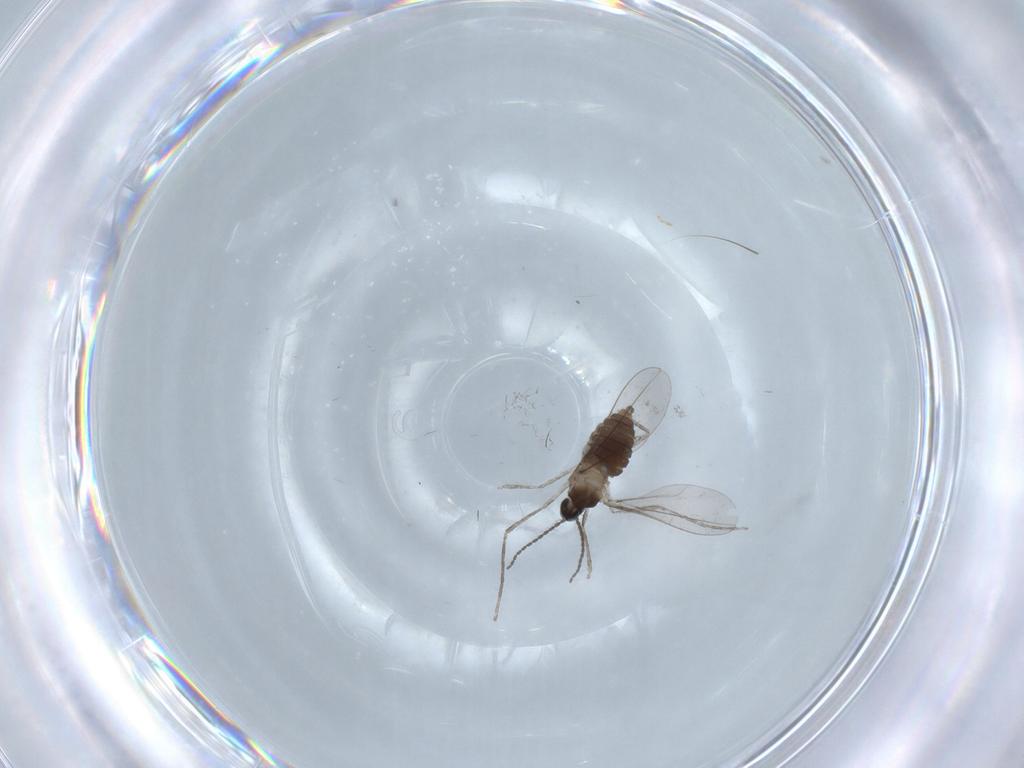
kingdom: Animalia
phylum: Arthropoda
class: Insecta
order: Diptera
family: Cecidomyiidae
